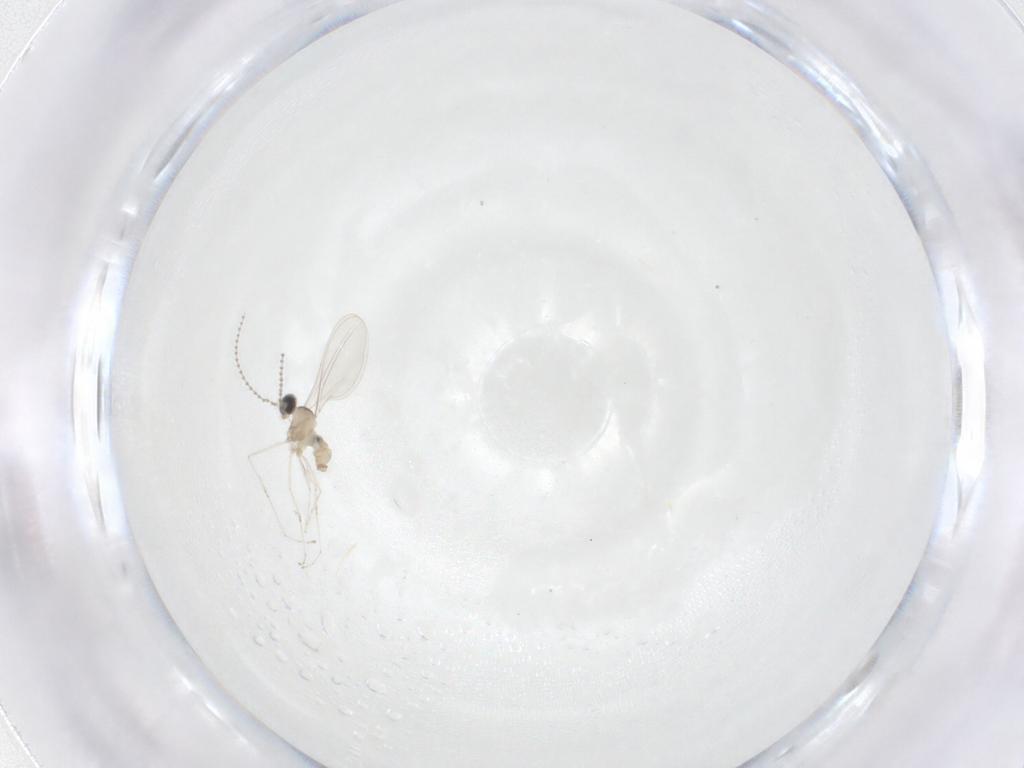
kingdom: Animalia
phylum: Arthropoda
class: Insecta
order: Diptera
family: Cecidomyiidae
